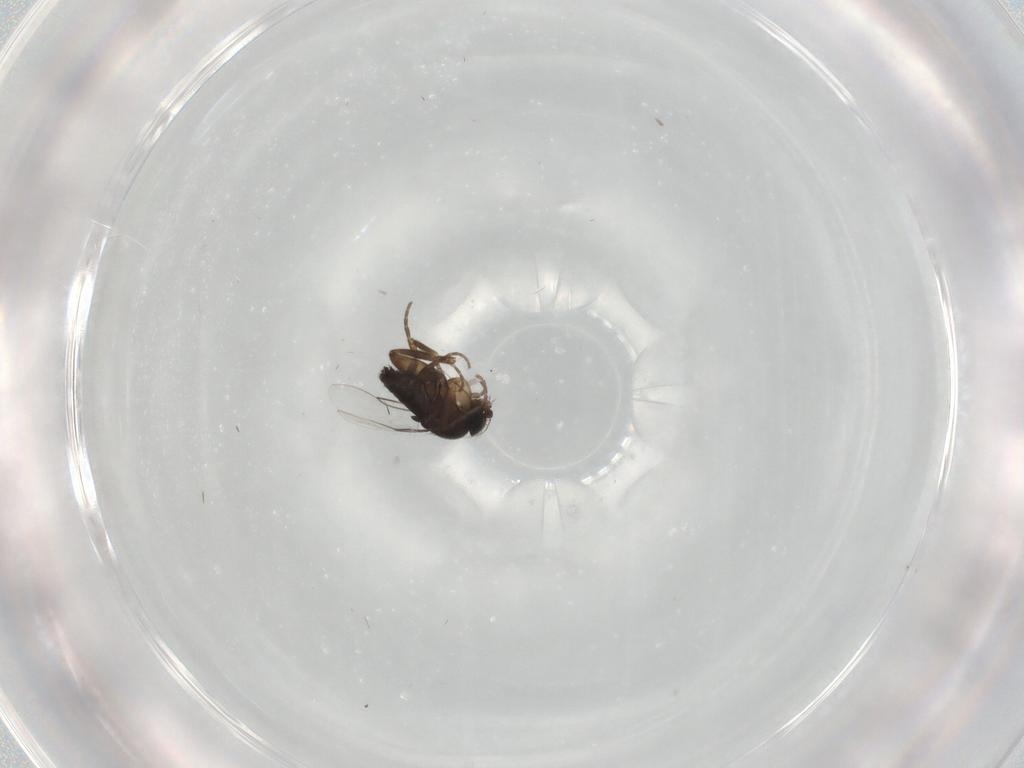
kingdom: Animalia
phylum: Arthropoda
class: Insecta
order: Diptera
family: Phoridae
